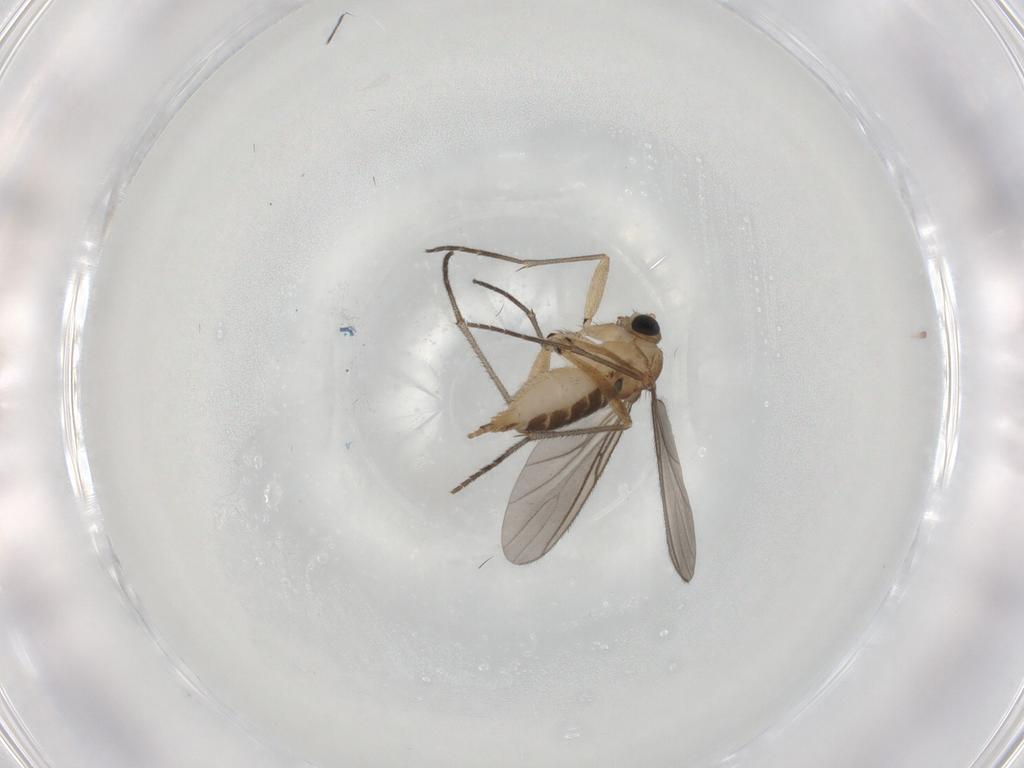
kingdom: Animalia
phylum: Arthropoda
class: Insecta
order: Diptera
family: Sciaridae
